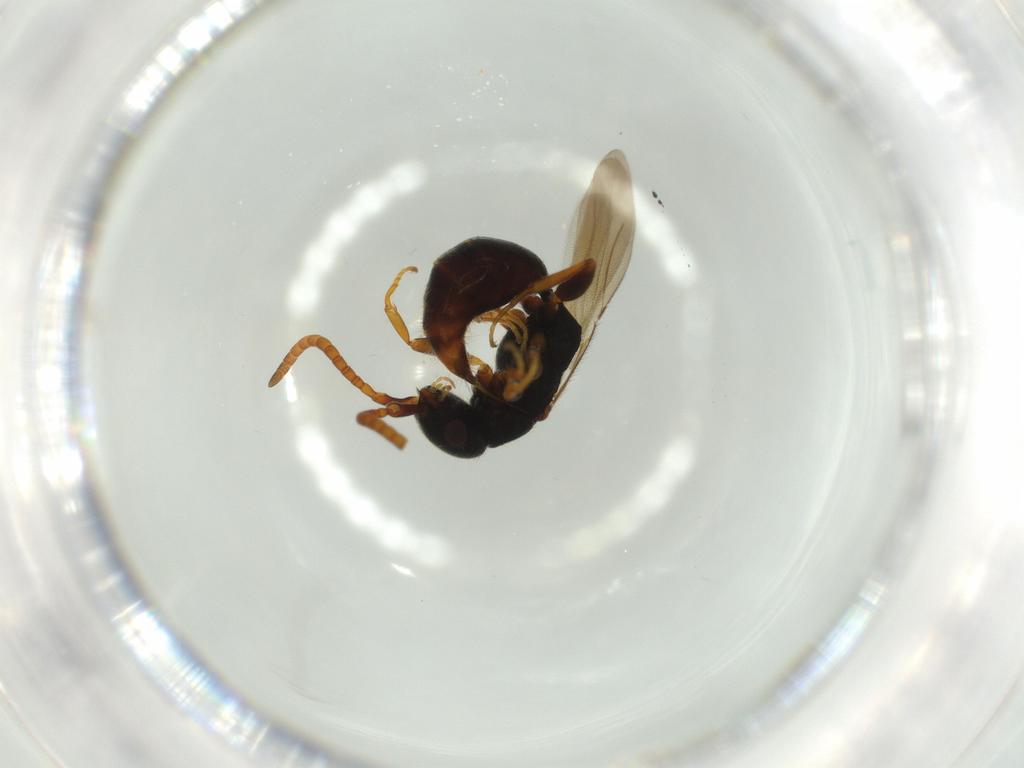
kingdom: Animalia
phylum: Arthropoda
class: Insecta
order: Hymenoptera
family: Bethylidae
